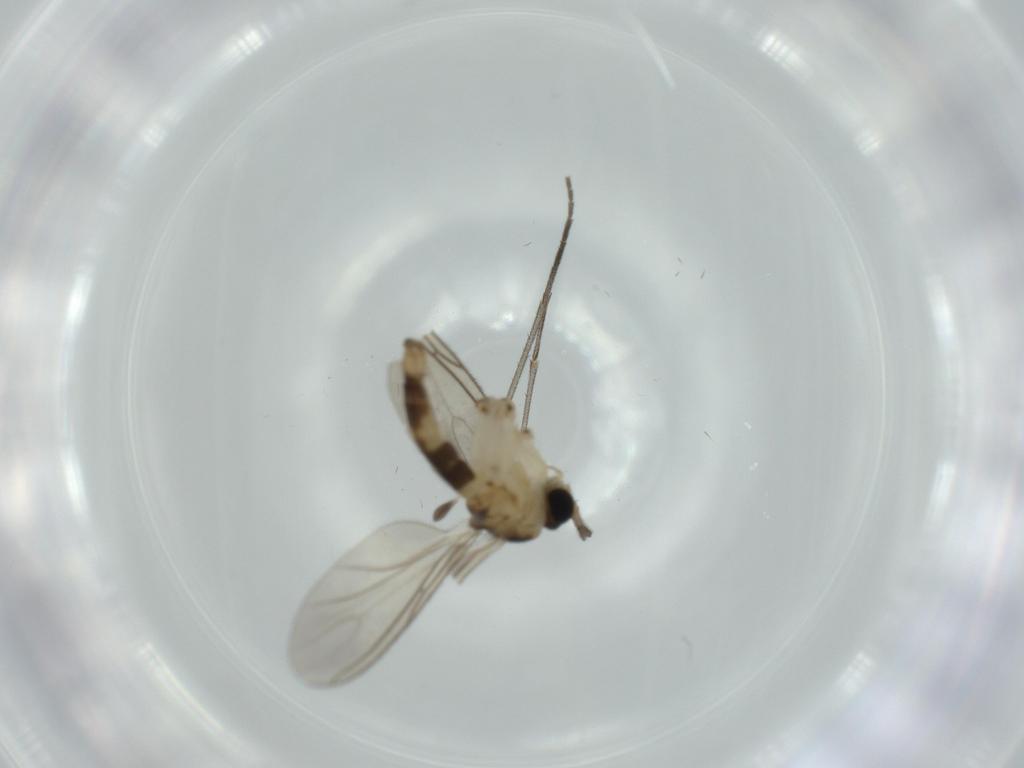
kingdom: Animalia
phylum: Arthropoda
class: Insecta
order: Diptera
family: Sciaridae
